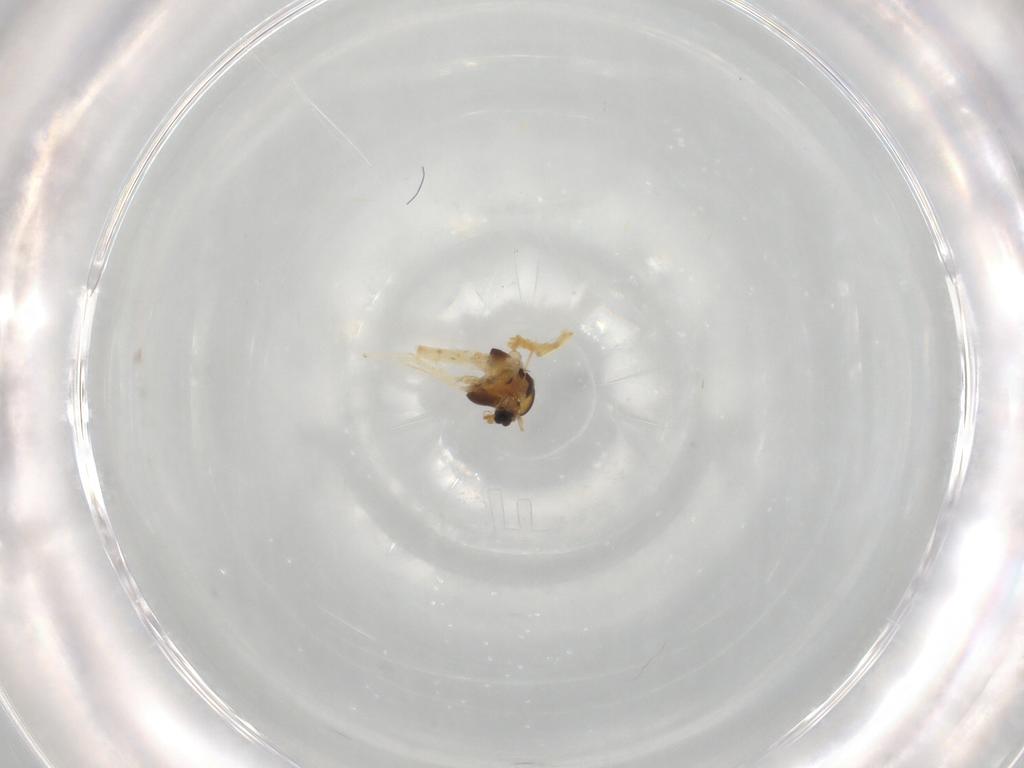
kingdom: Animalia
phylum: Arthropoda
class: Insecta
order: Diptera
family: Chironomidae
